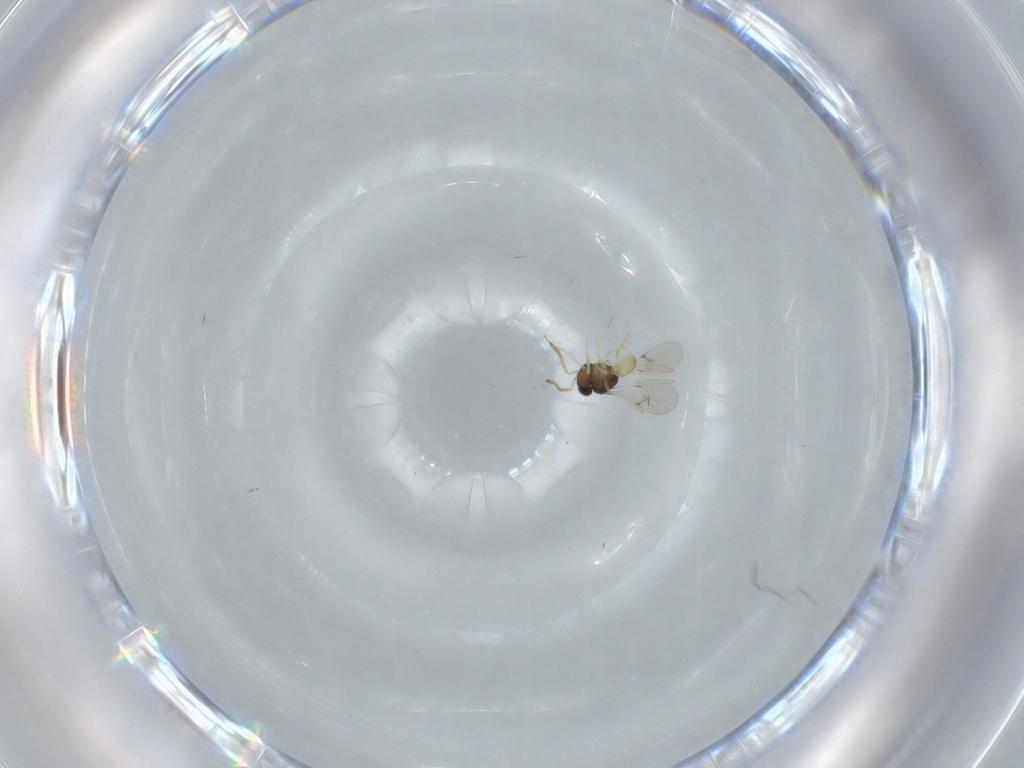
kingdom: Animalia
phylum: Arthropoda
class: Insecta
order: Hymenoptera
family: Scelionidae
